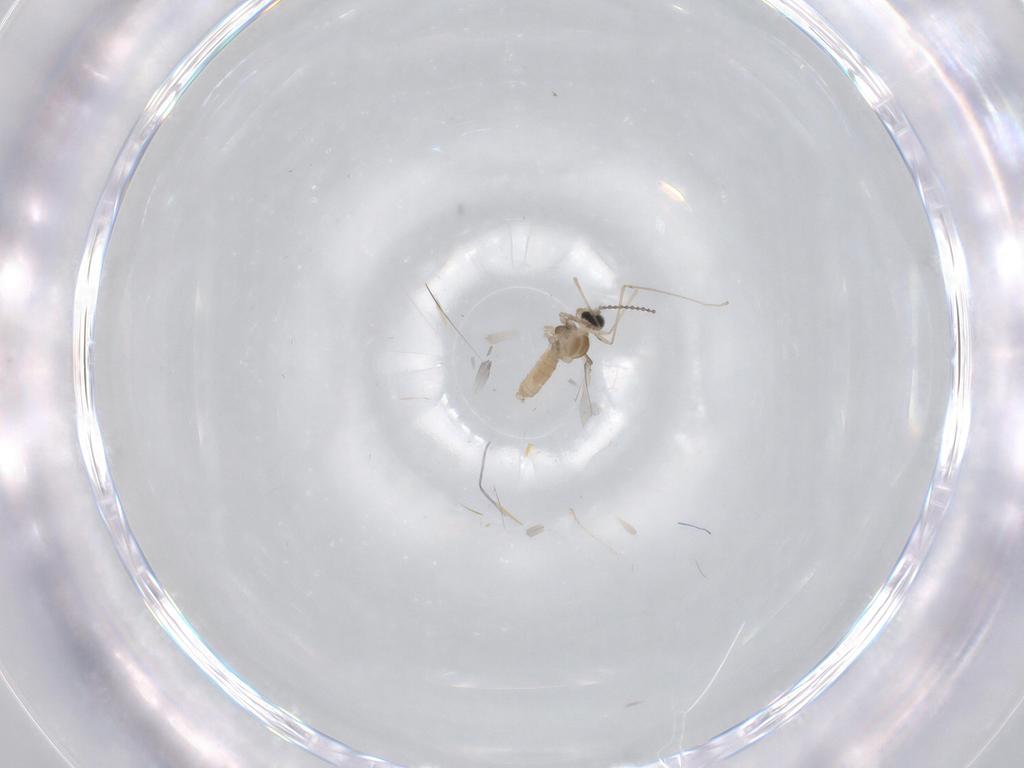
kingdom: Animalia
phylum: Arthropoda
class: Insecta
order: Diptera
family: Cecidomyiidae
